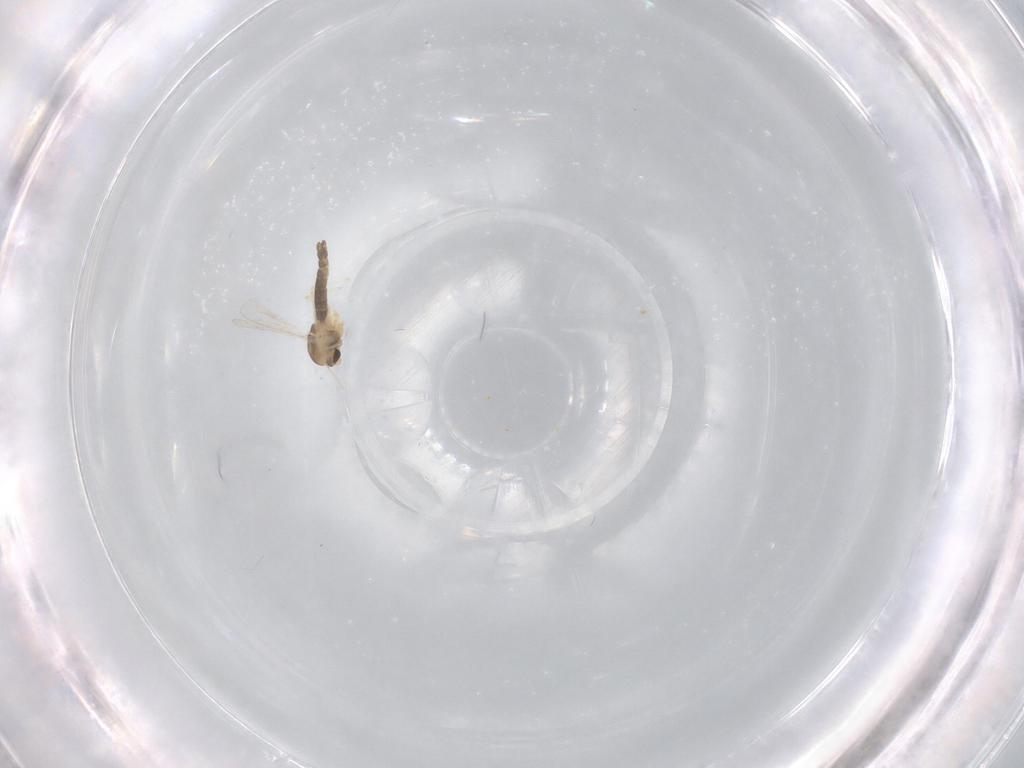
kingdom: Animalia
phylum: Arthropoda
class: Insecta
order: Diptera
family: Chironomidae
